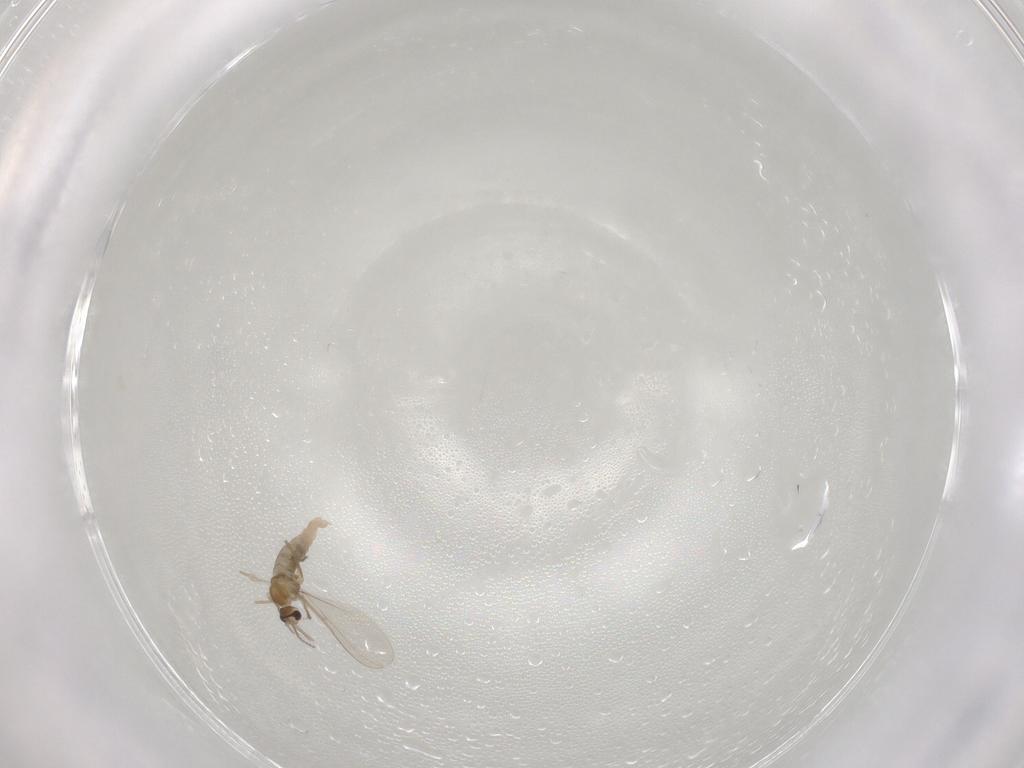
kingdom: Animalia
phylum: Arthropoda
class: Insecta
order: Diptera
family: Cecidomyiidae
